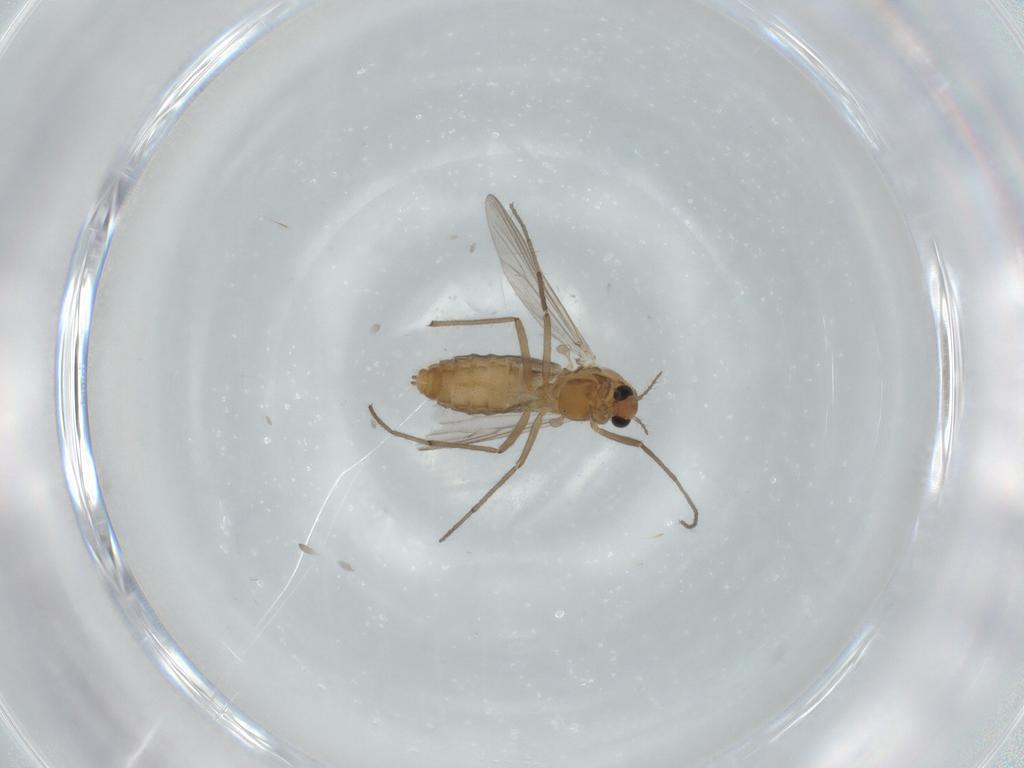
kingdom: Animalia
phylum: Arthropoda
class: Insecta
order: Diptera
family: Chironomidae
